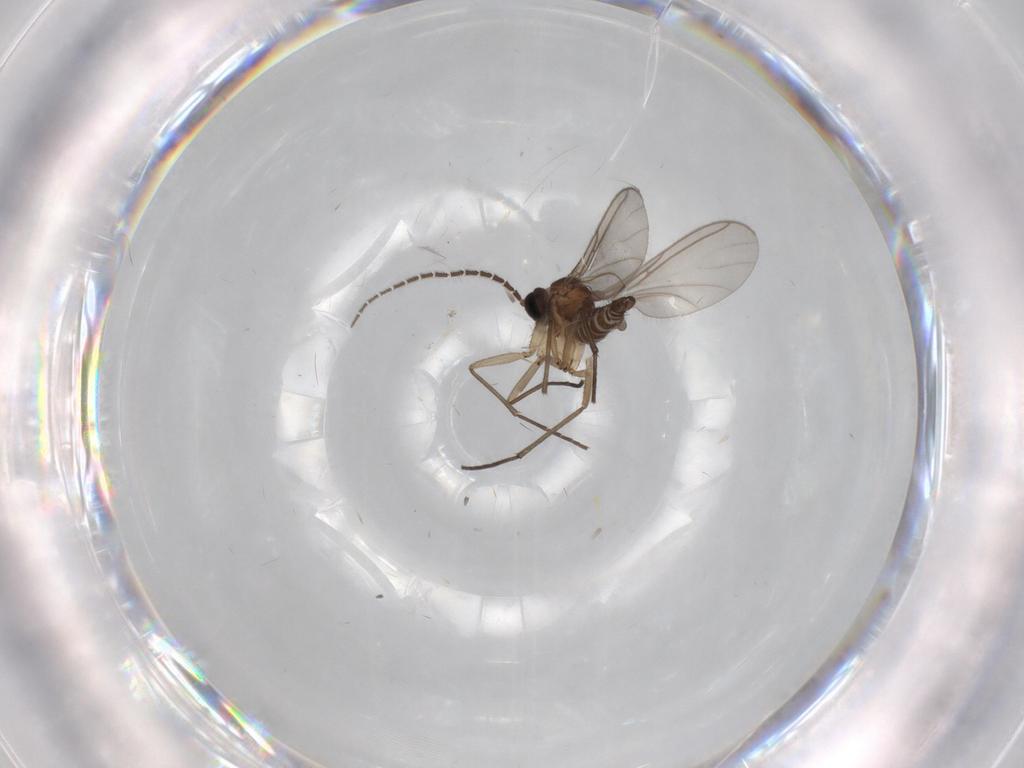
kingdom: Animalia
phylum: Arthropoda
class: Insecta
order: Diptera
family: Sciaridae
